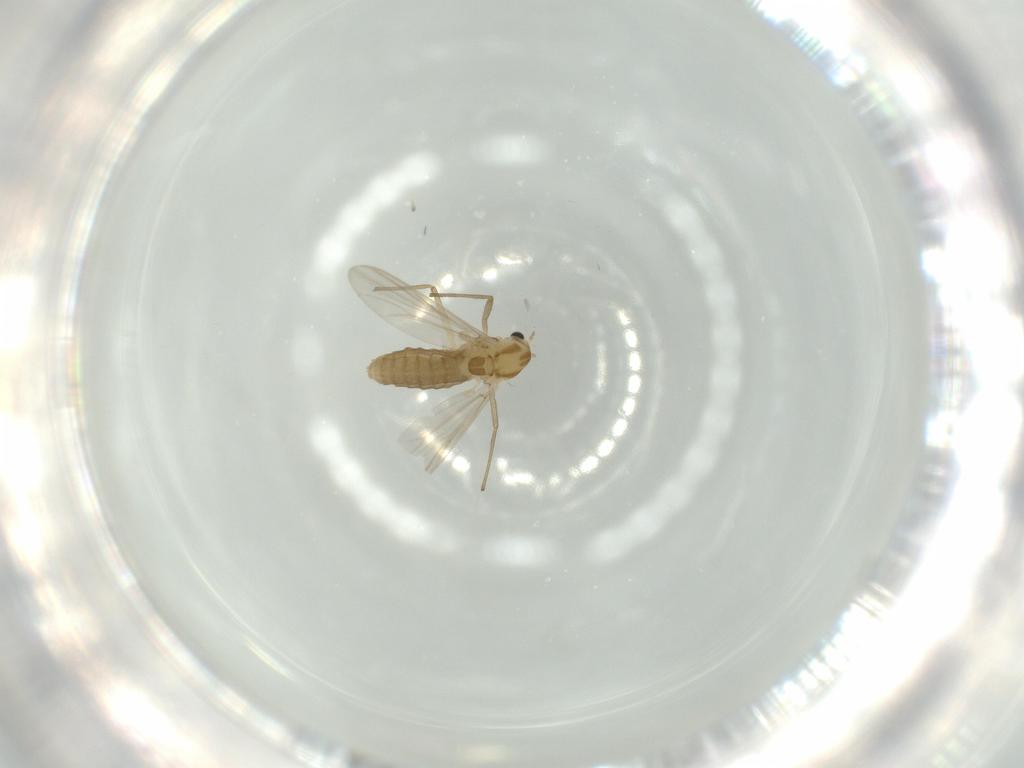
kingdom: Animalia
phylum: Arthropoda
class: Insecta
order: Diptera
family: Chironomidae
